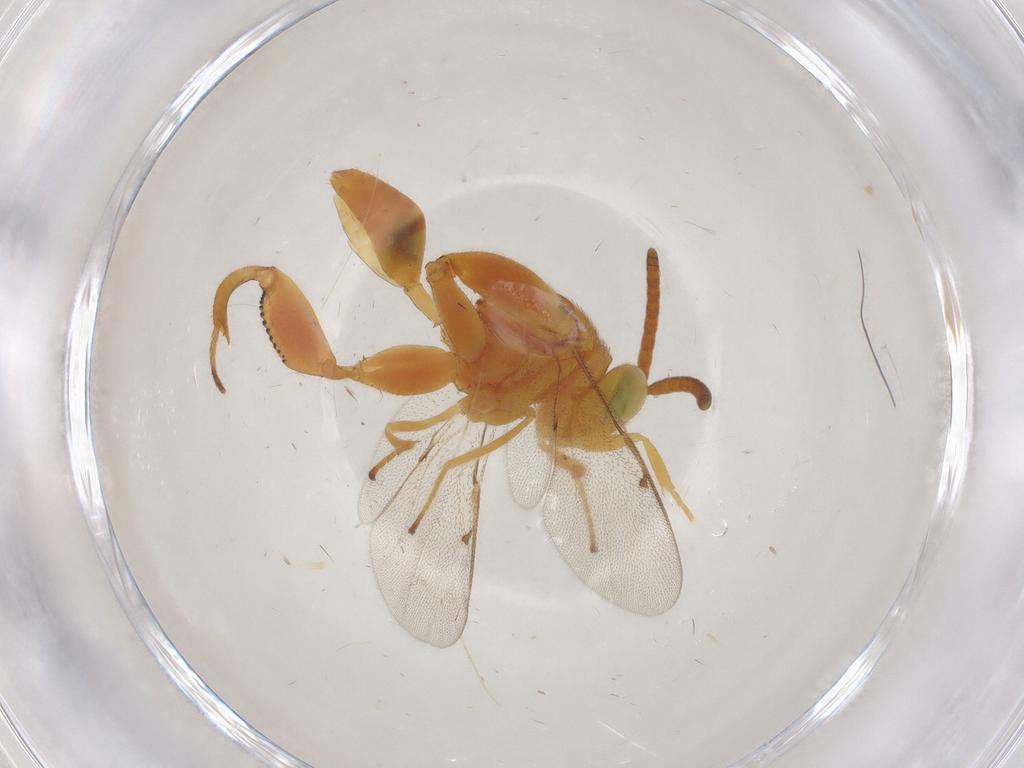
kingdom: Animalia
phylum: Arthropoda
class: Insecta
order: Hymenoptera
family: Chalcididae
